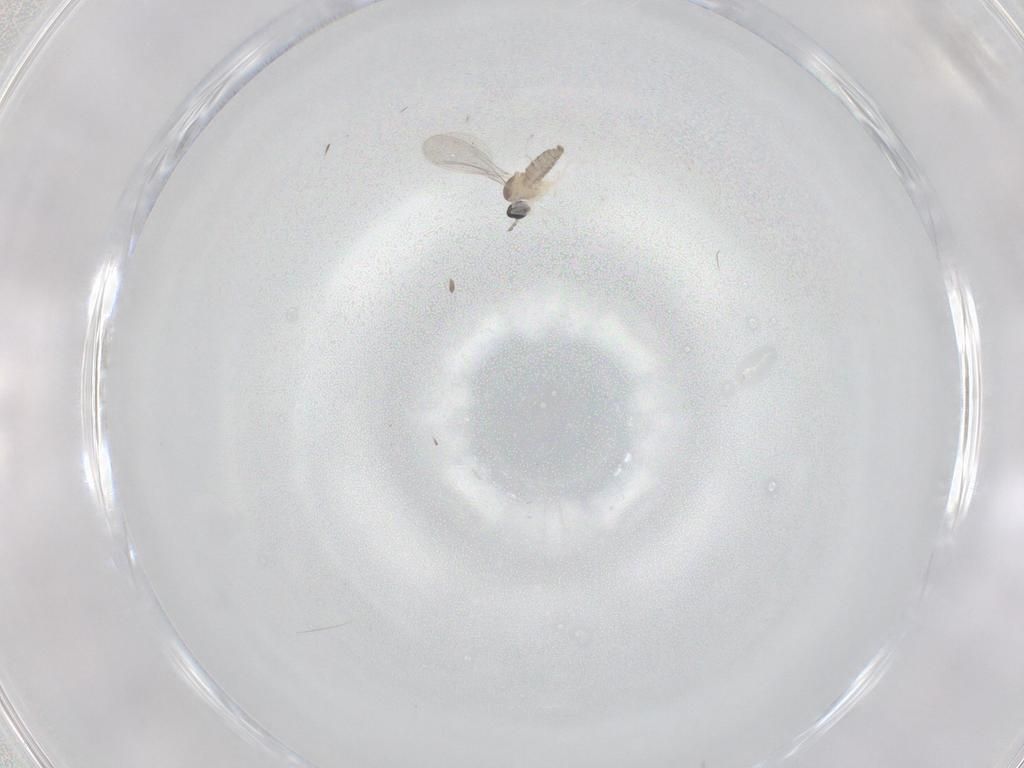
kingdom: Animalia
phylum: Arthropoda
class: Insecta
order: Diptera
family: Cecidomyiidae
